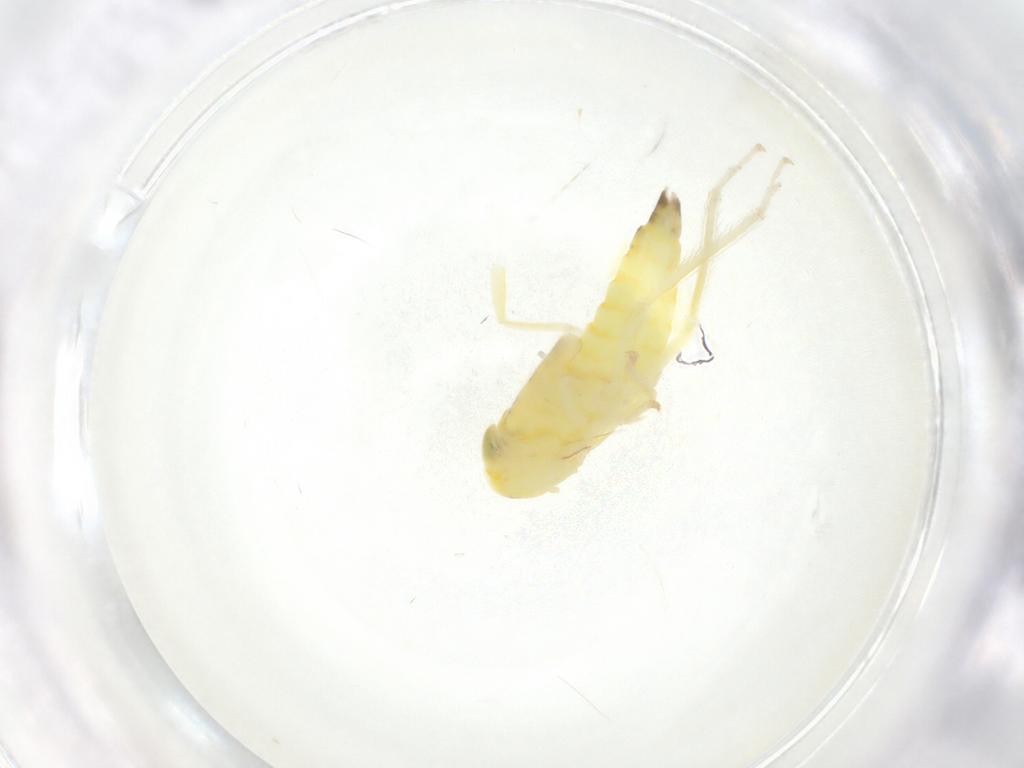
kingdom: Animalia
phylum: Arthropoda
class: Insecta
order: Hemiptera
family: Cicadellidae
